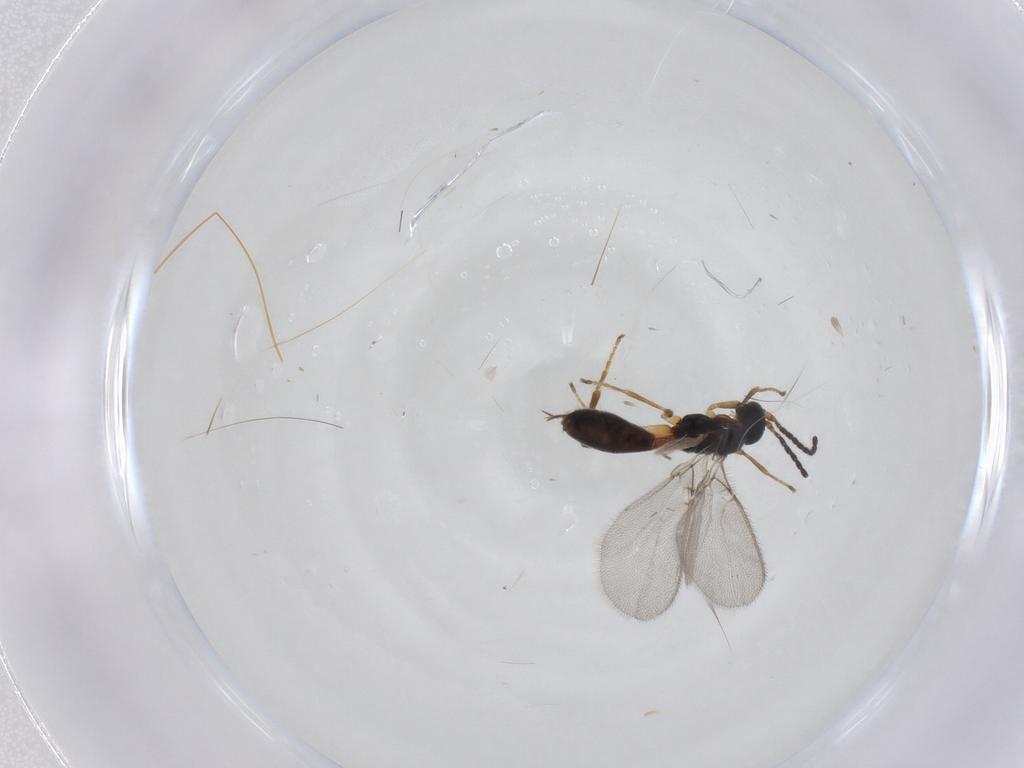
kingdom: Animalia
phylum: Arthropoda
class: Insecta
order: Hymenoptera
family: Braconidae
